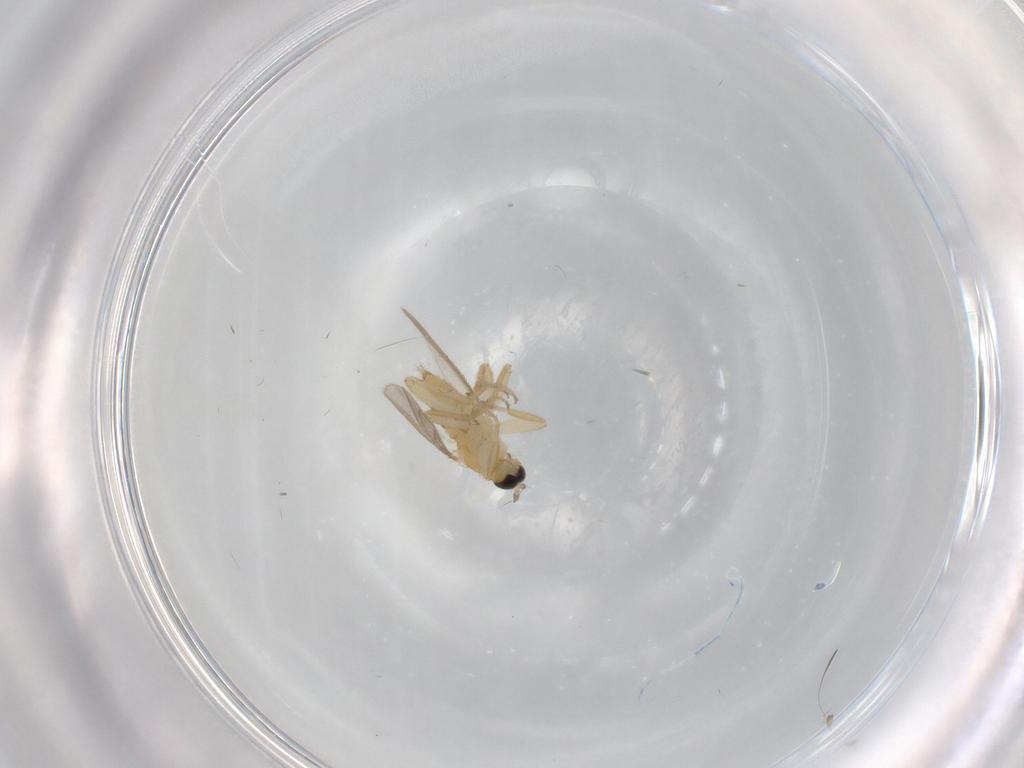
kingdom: Animalia
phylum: Arthropoda
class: Insecta
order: Diptera
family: Hybotidae
